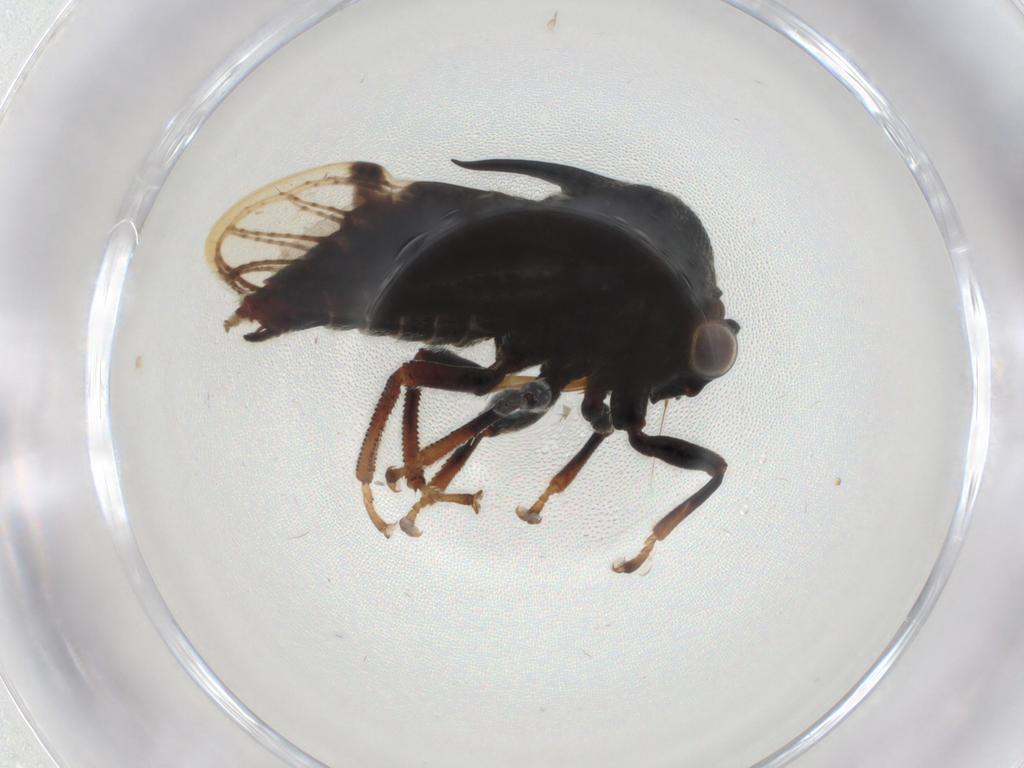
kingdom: Animalia
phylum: Arthropoda
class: Insecta
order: Hemiptera
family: Membracidae
